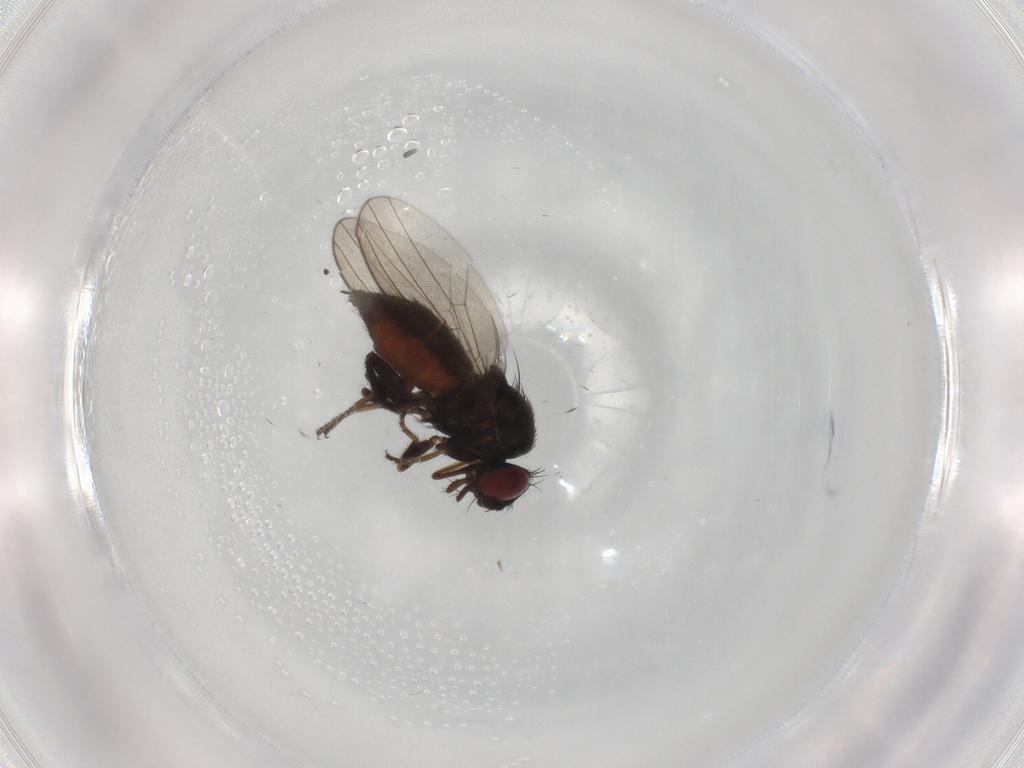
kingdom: Animalia
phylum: Arthropoda
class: Insecta
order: Diptera
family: Milichiidae
